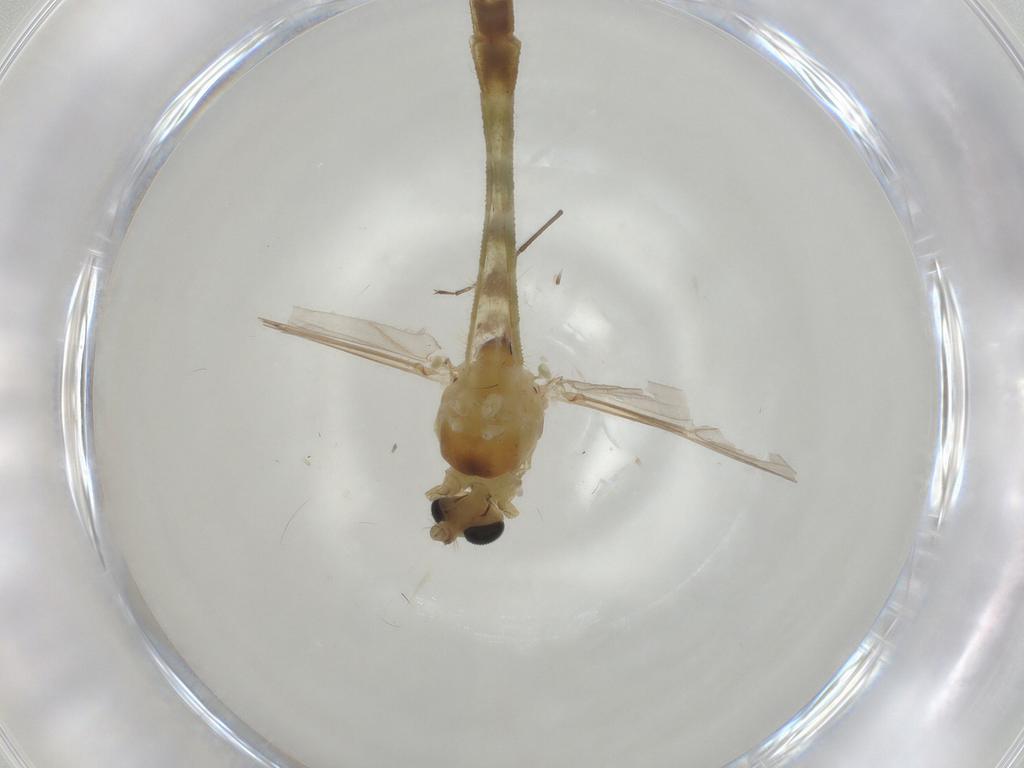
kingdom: Animalia
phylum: Arthropoda
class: Insecta
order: Diptera
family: Chironomidae
